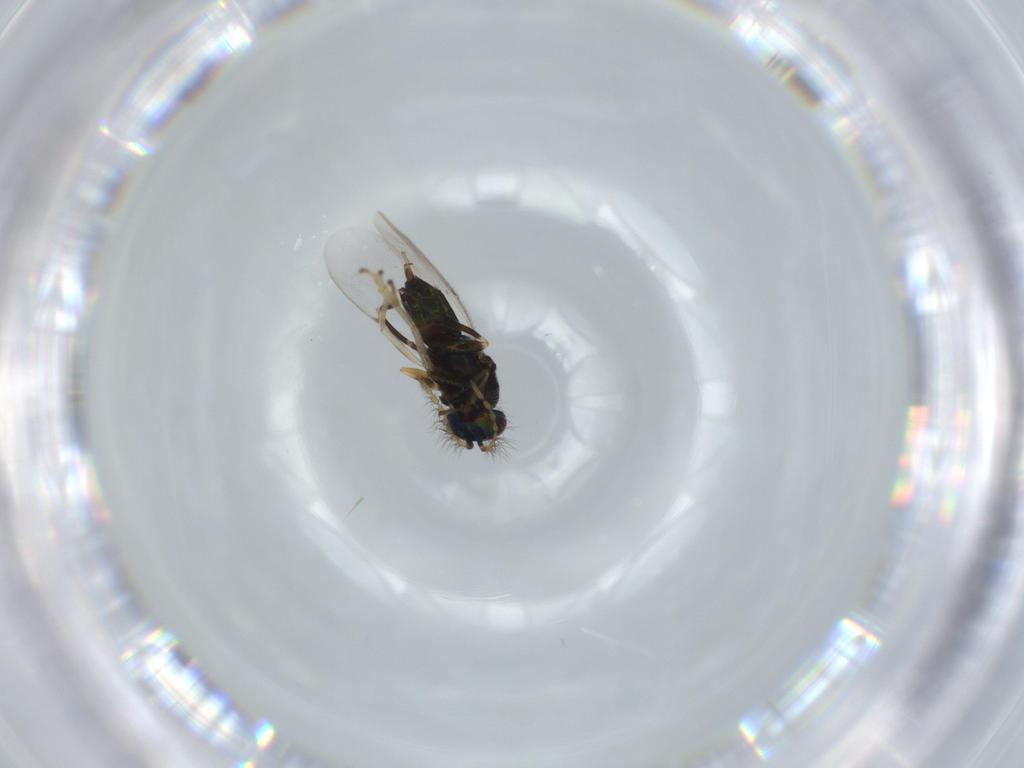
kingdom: Animalia
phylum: Arthropoda
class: Insecta
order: Hymenoptera
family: Encyrtidae
